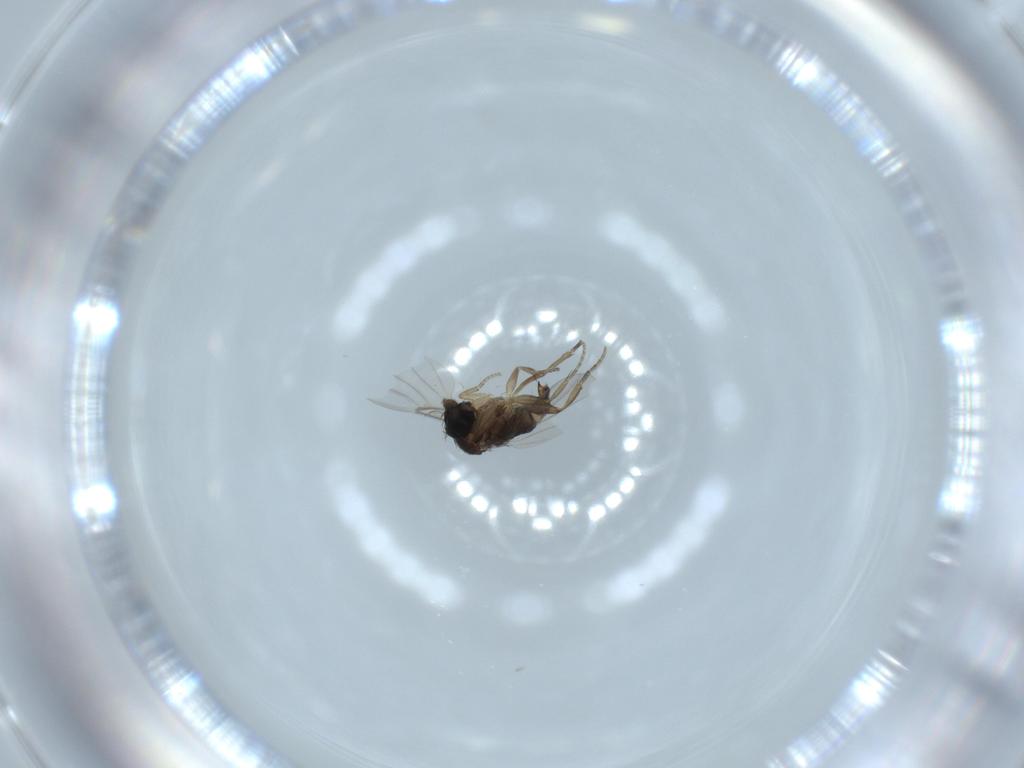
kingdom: Animalia
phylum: Arthropoda
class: Insecta
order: Diptera
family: Phoridae
